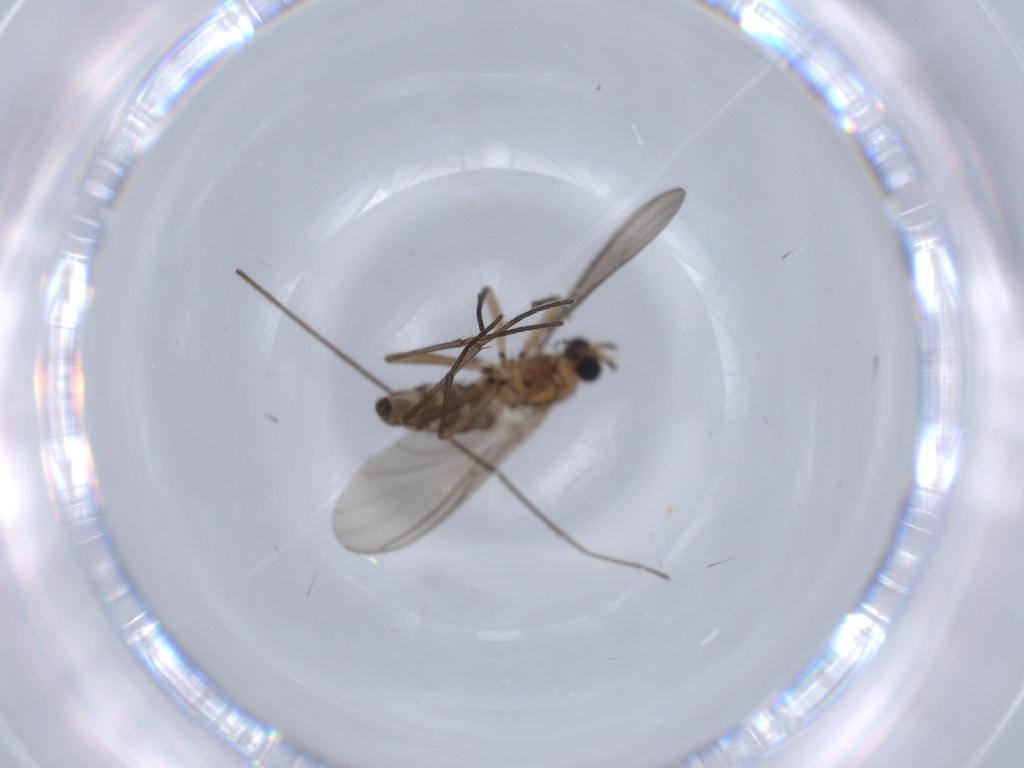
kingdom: Animalia
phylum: Arthropoda
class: Insecta
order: Diptera
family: Sciaridae
